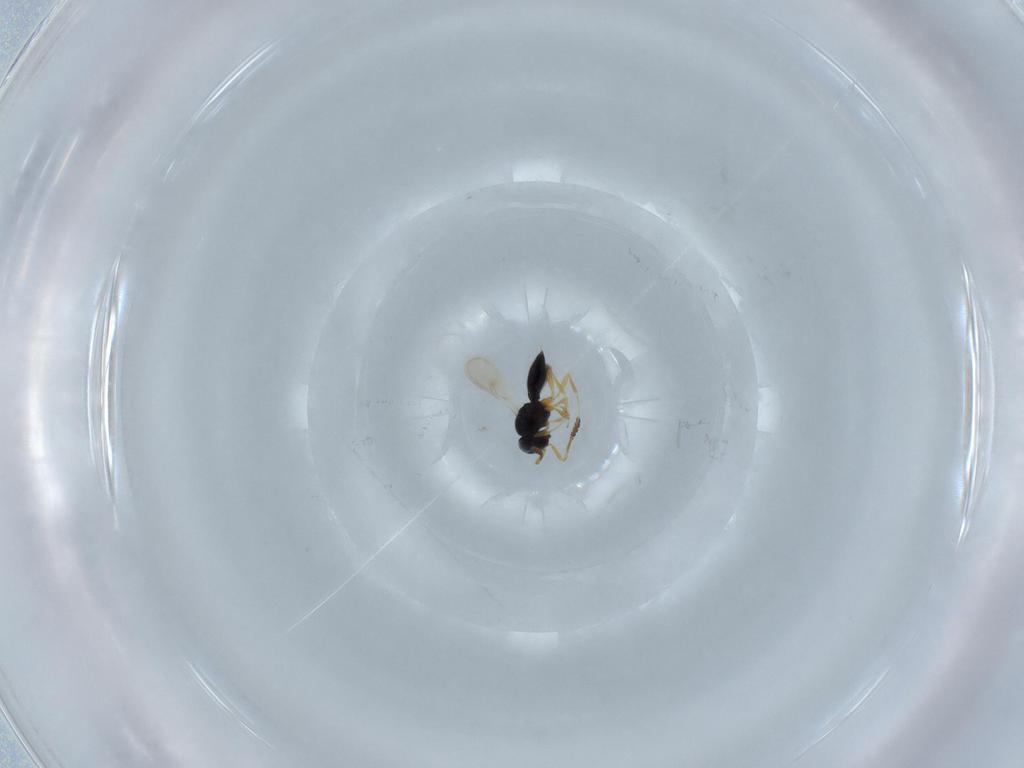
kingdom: Animalia
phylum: Arthropoda
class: Insecta
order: Hymenoptera
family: Scelionidae
